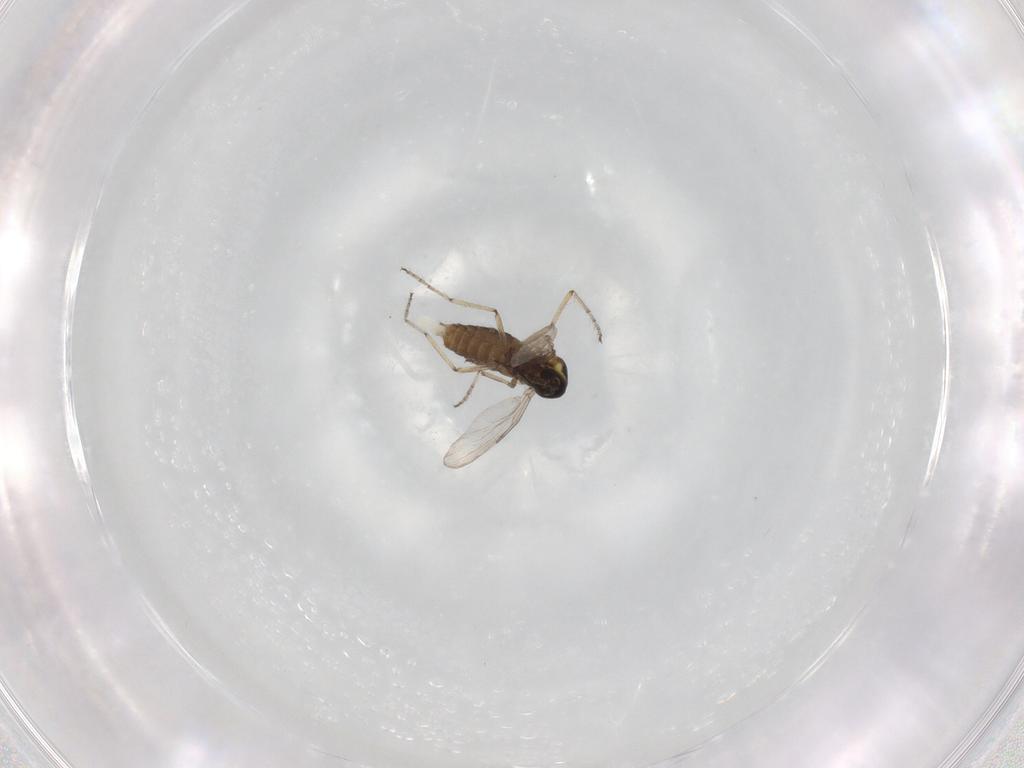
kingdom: Animalia
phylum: Arthropoda
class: Insecta
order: Diptera
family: Ceratopogonidae
